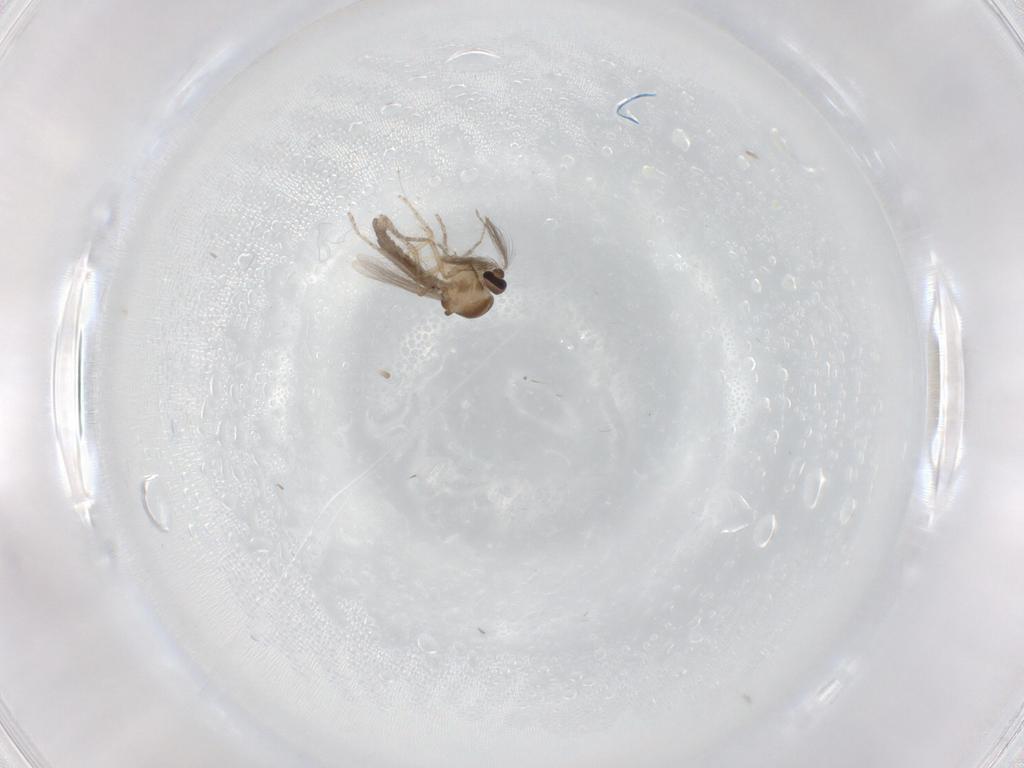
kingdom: Animalia
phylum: Arthropoda
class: Insecta
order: Diptera
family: Ceratopogonidae
